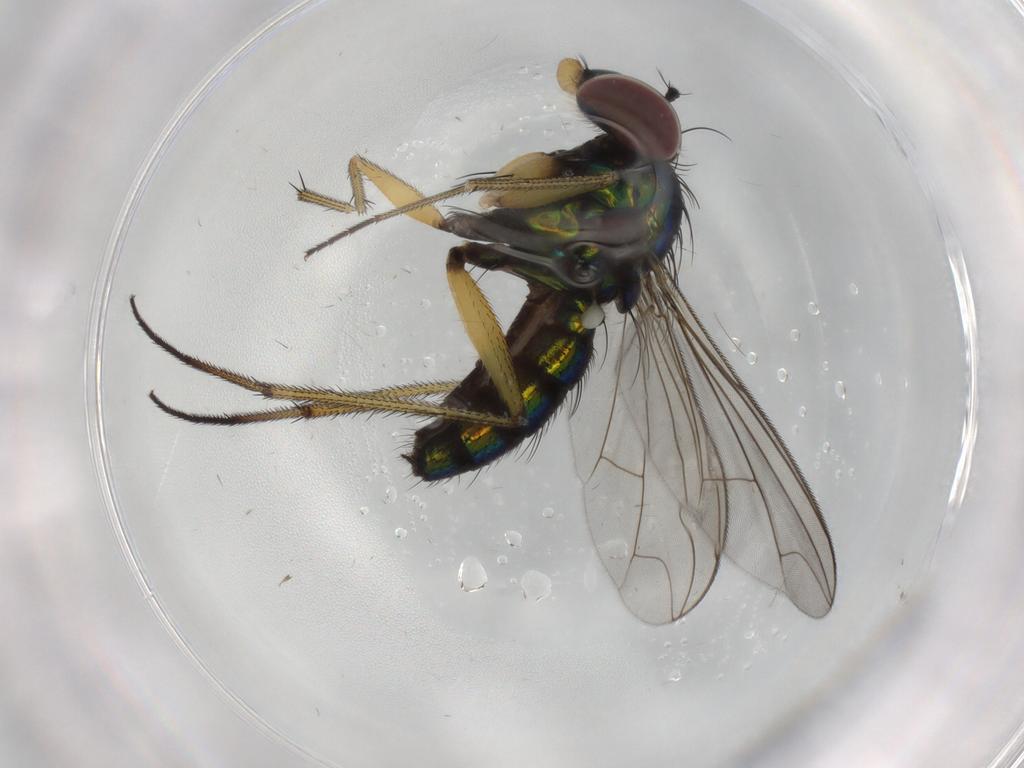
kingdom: Animalia
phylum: Arthropoda
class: Insecta
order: Diptera
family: Dolichopodidae
